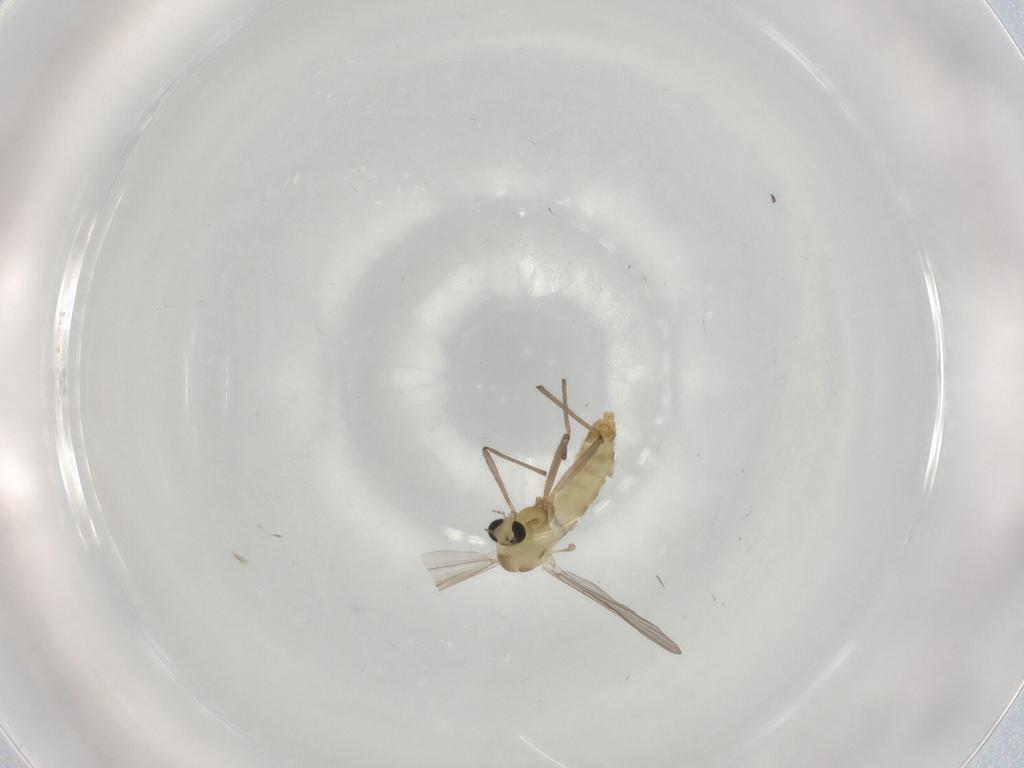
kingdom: Animalia
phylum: Arthropoda
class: Insecta
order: Diptera
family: Chironomidae
